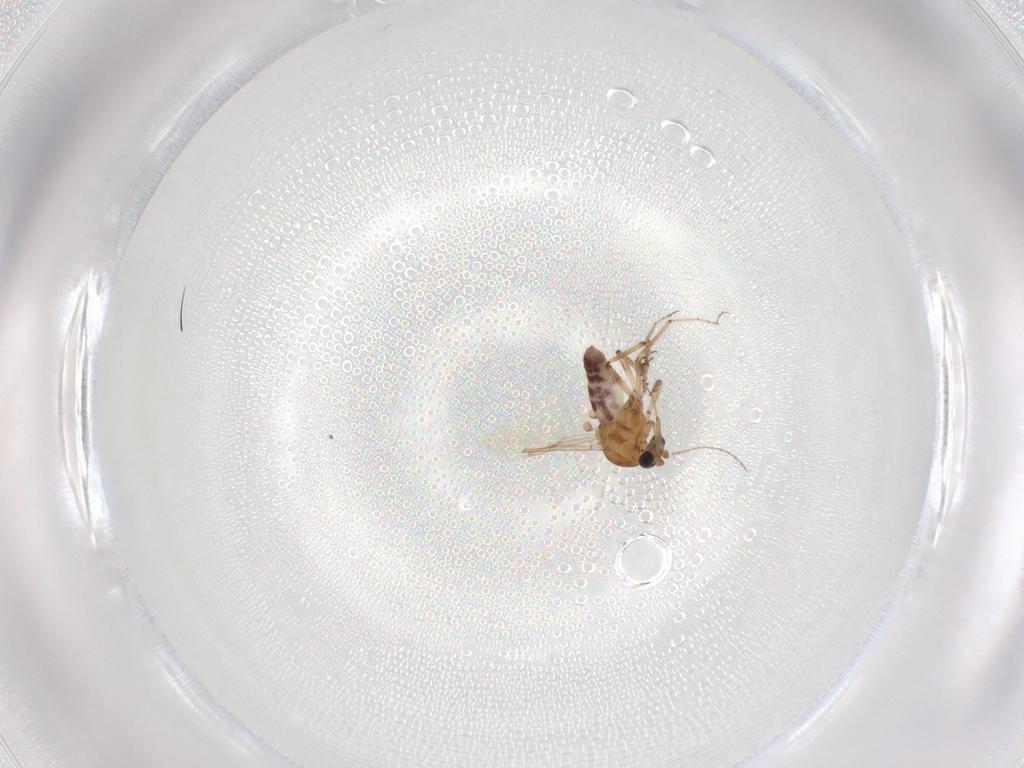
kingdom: Animalia
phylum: Arthropoda
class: Insecta
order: Diptera
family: Ceratopogonidae
